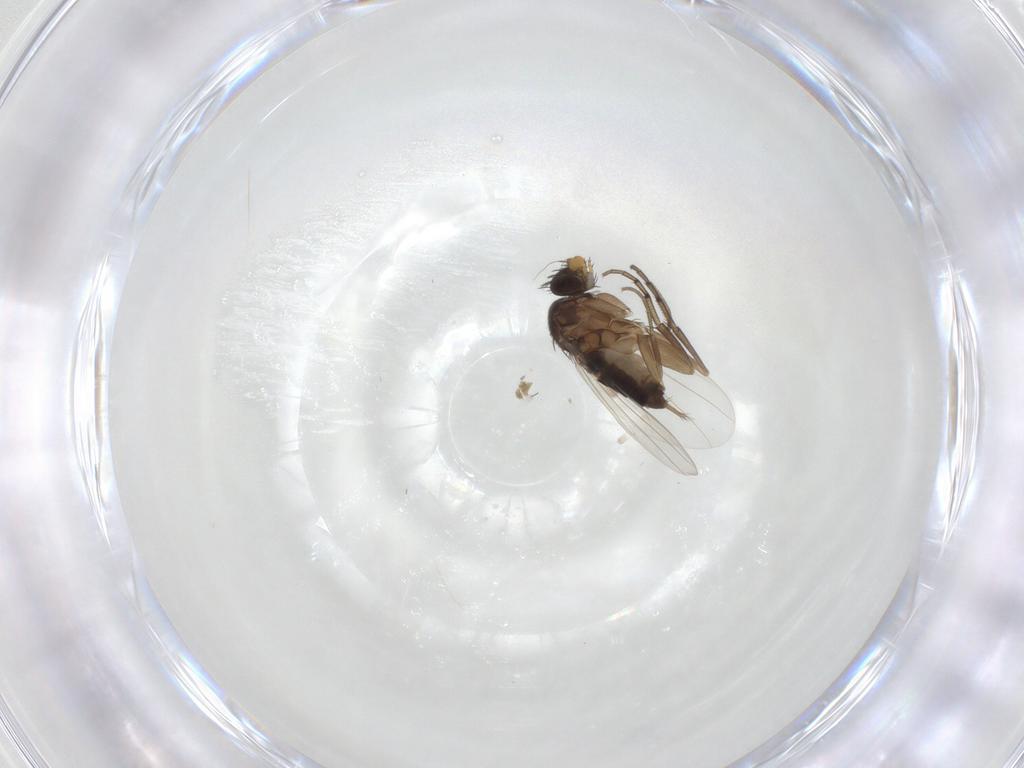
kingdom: Animalia
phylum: Arthropoda
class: Insecta
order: Diptera
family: Phoridae
